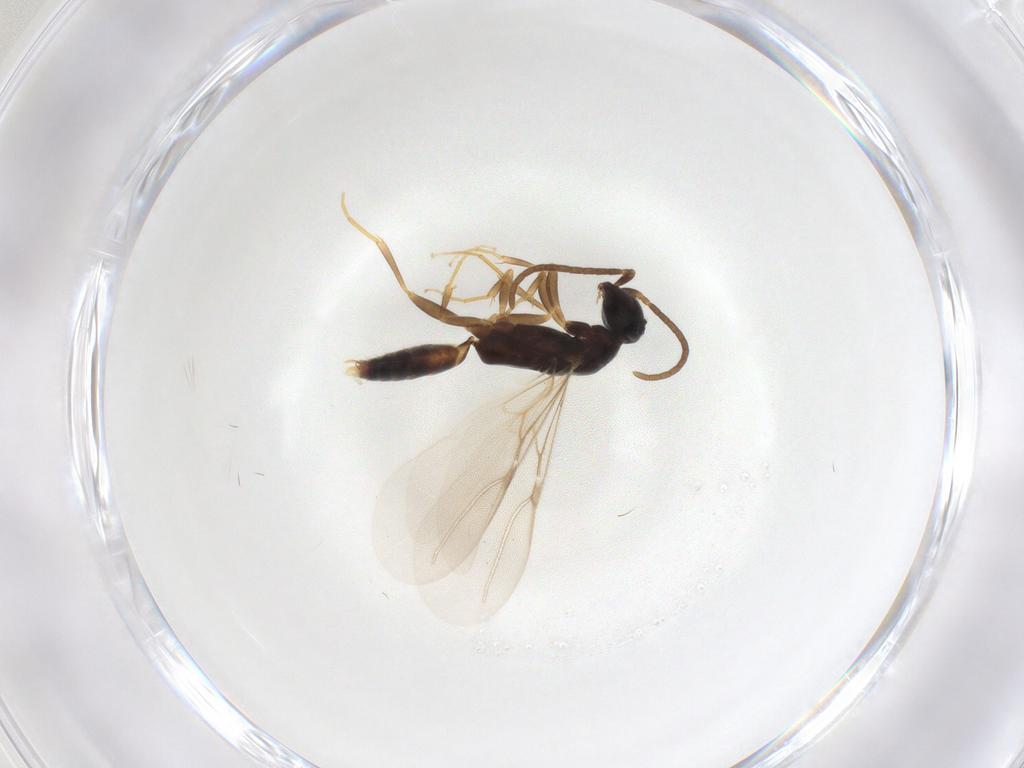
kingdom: Animalia
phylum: Arthropoda
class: Insecta
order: Hymenoptera
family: Bethylidae
